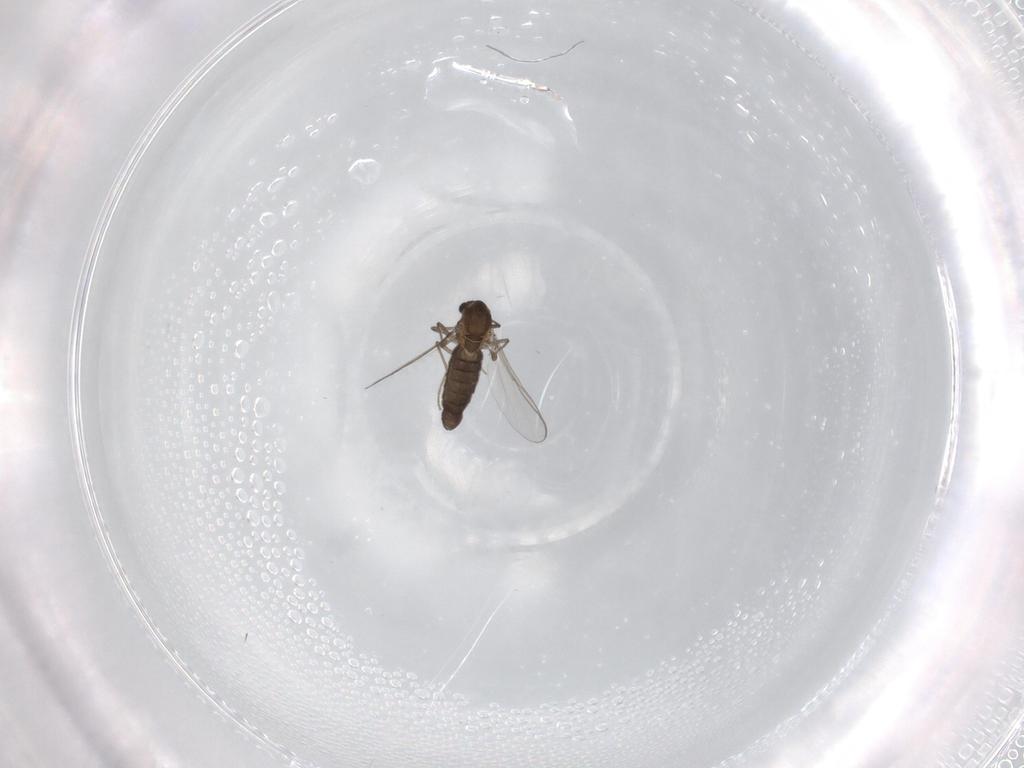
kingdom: Animalia
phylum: Arthropoda
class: Insecta
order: Diptera
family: Chironomidae
